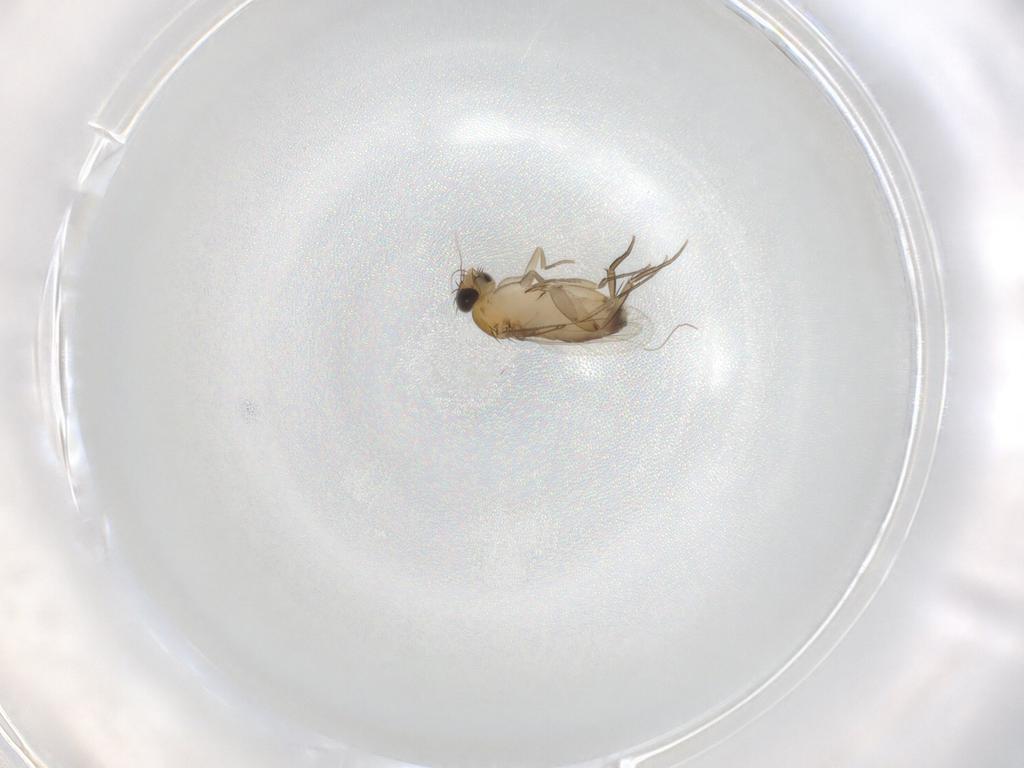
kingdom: Animalia
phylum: Arthropoda
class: Insecta
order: Diptera
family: Phoridae
